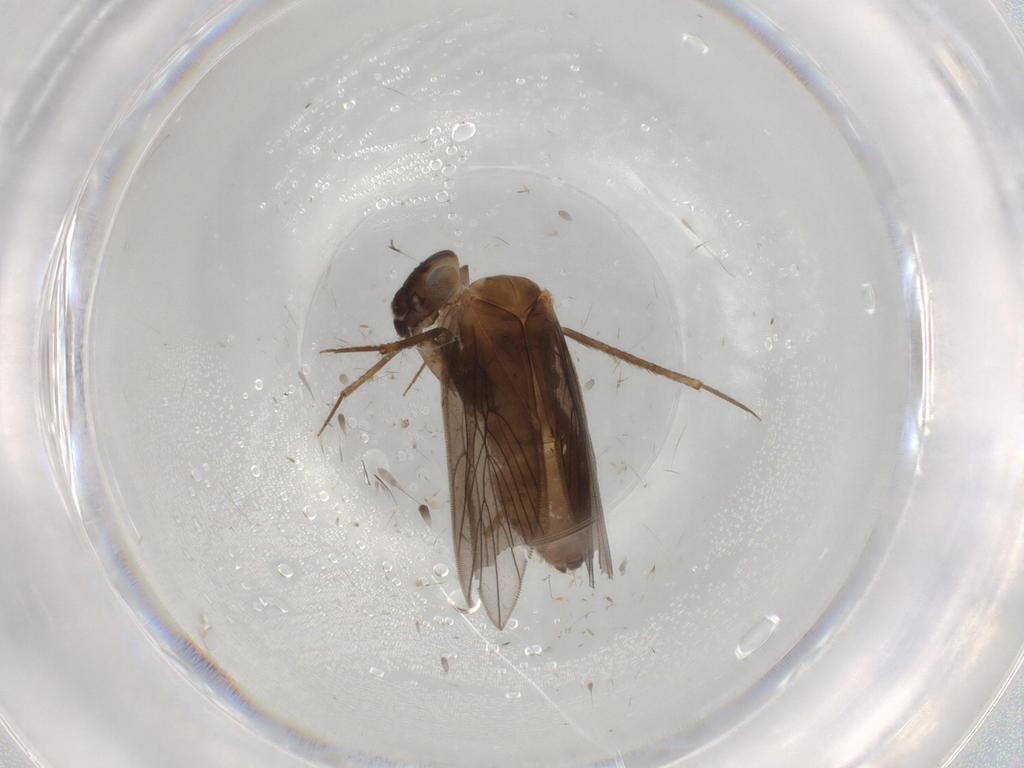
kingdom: Animalia
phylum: Arthropoda
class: Insecta
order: Psocodea
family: Lepidopsocidae
